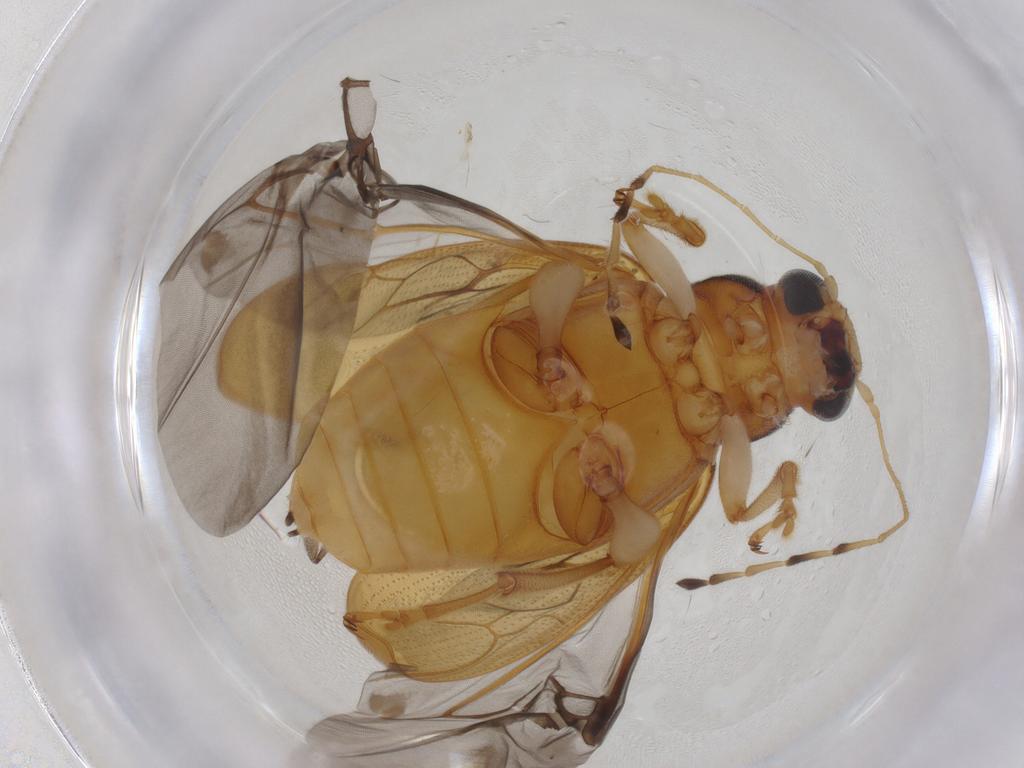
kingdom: Animalia
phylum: Arthropoda
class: Insecta
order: Coleoptera
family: Chrysomelidae
